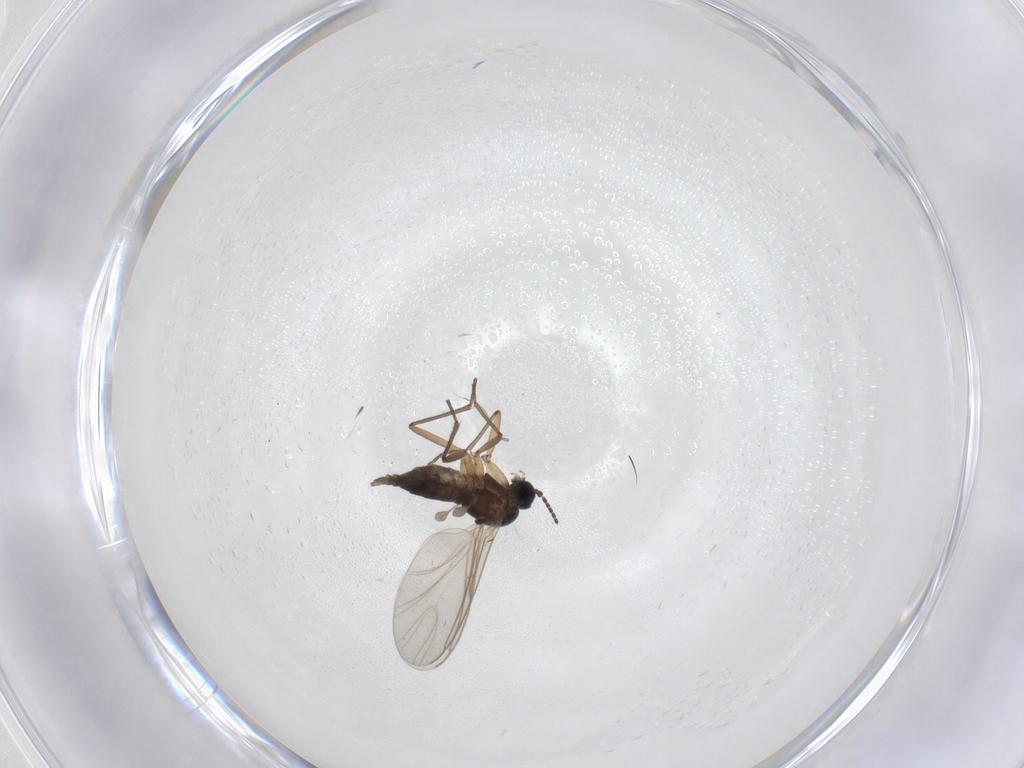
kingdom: Animalia
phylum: Arthropoda
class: Insecta
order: Diptera
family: Sciaridae
